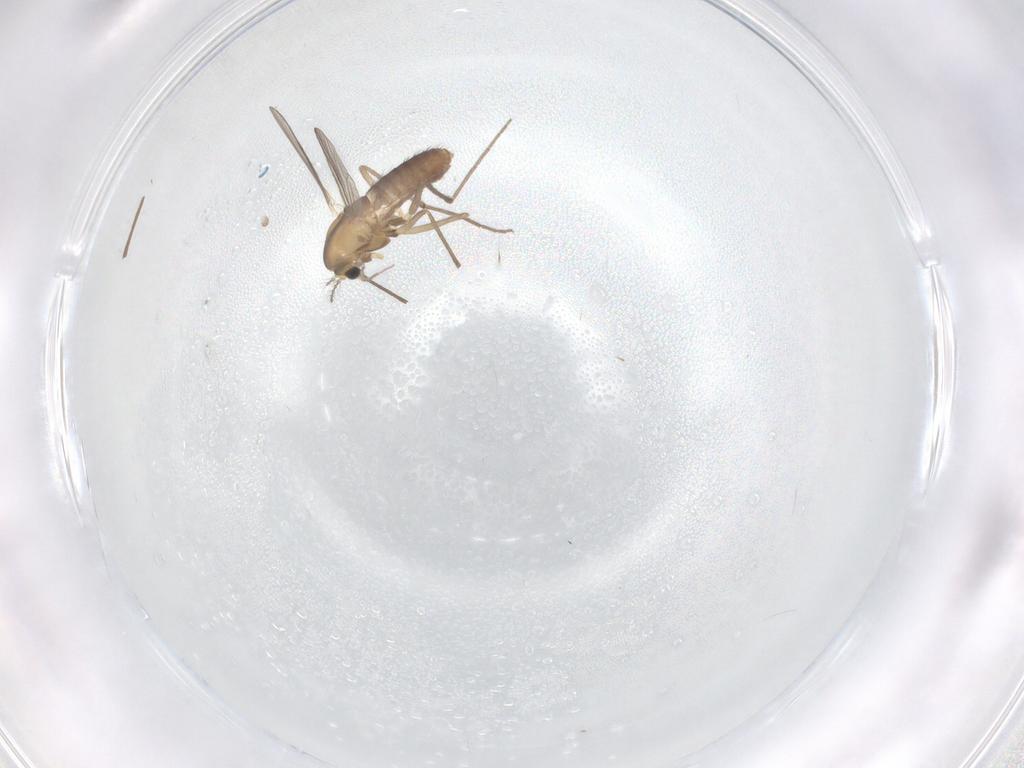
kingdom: Animalia
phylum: Arthropoda
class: Insecta
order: Diptera
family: Chironomidae
